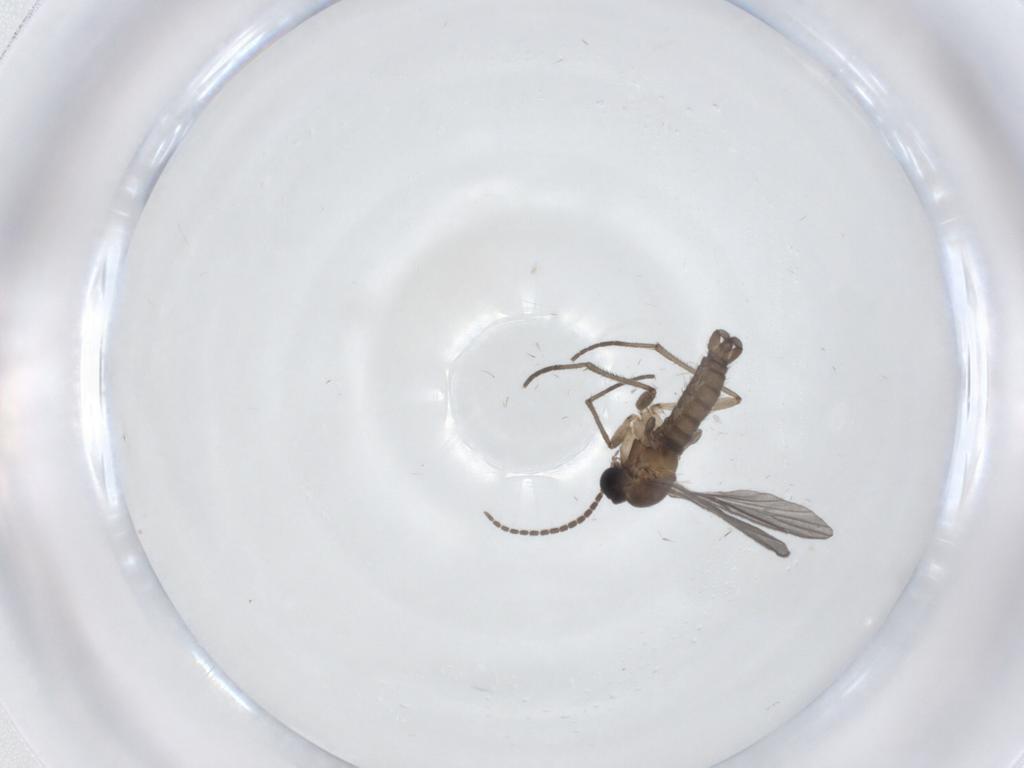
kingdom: Animalia
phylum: Arthropoda
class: Insecta
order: Diptera
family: Sciaridae
